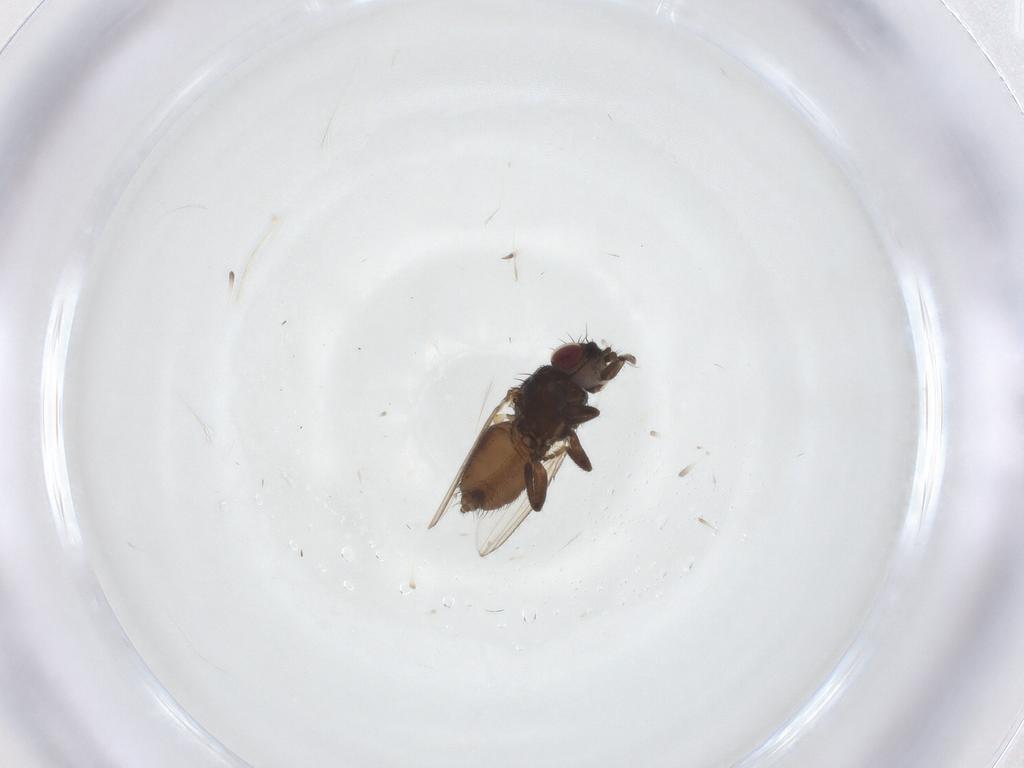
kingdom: Animalia
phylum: Arthropoda
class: Insecta
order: Diptera
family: Milichiidae
